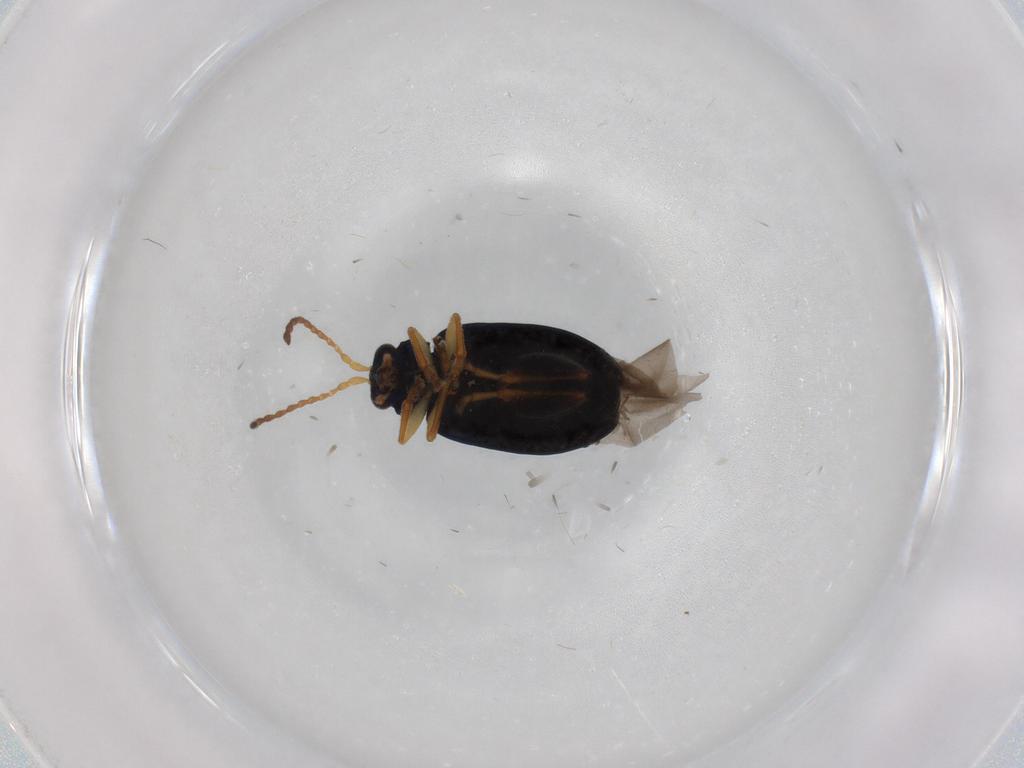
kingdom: Animalia
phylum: Arthropoda
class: Insecta
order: Coleoptera
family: Chrysomelidae
